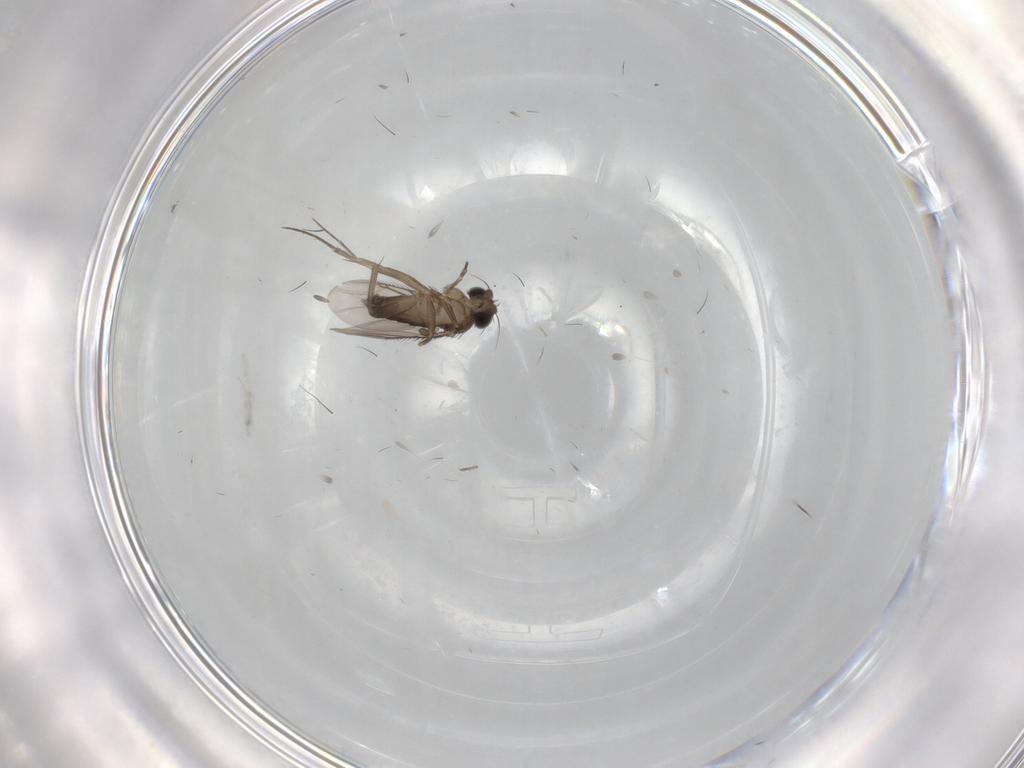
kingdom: Animalia
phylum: Arthropoda
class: Insecta
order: Diptera
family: Phoridae
